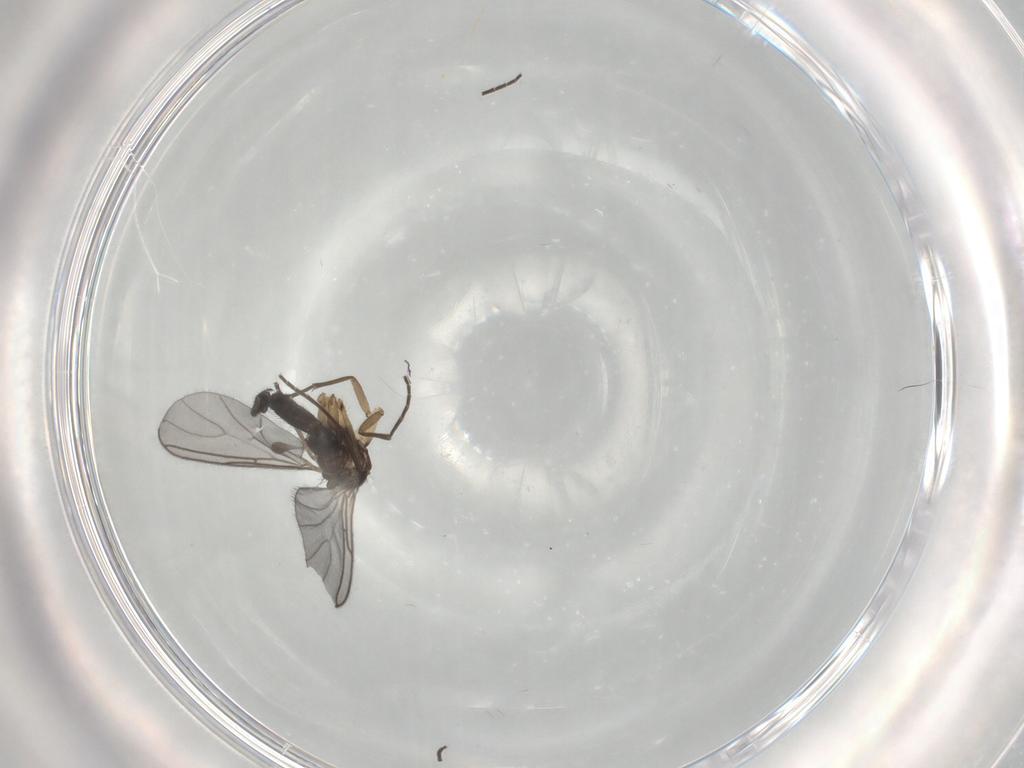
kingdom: Animalia
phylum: Arthropoda
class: Insecta
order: Diptera
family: Sciaridae
